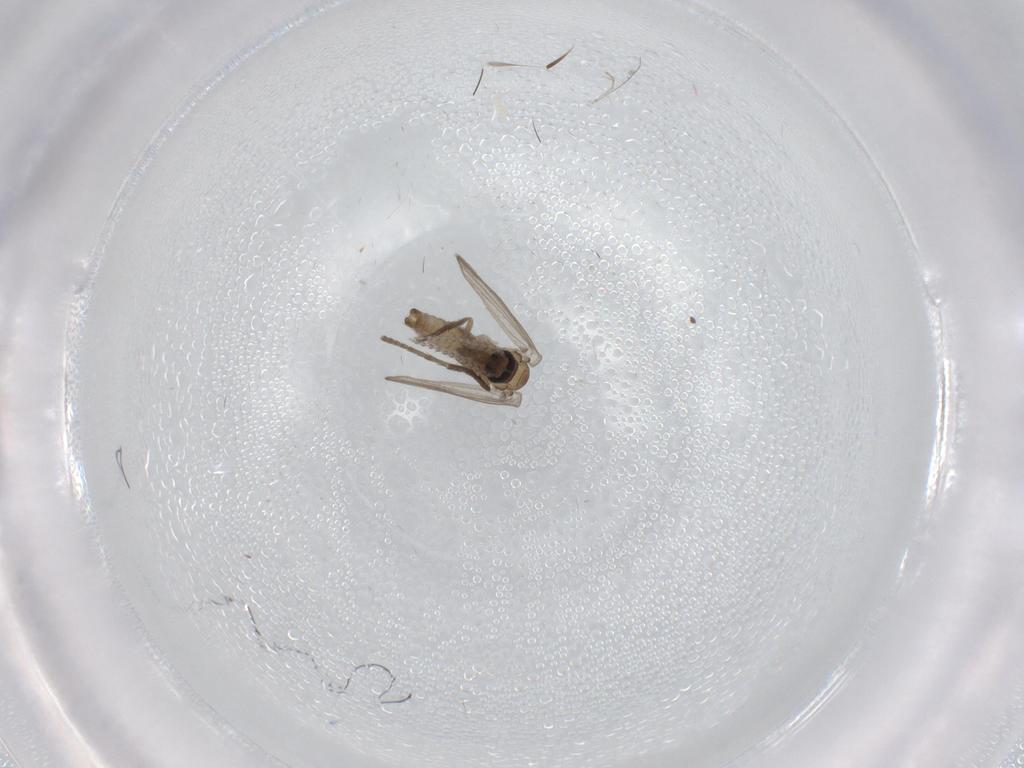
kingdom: Animalia
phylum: Arthropoda
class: Insecta
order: Diptera
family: Psychodidae
